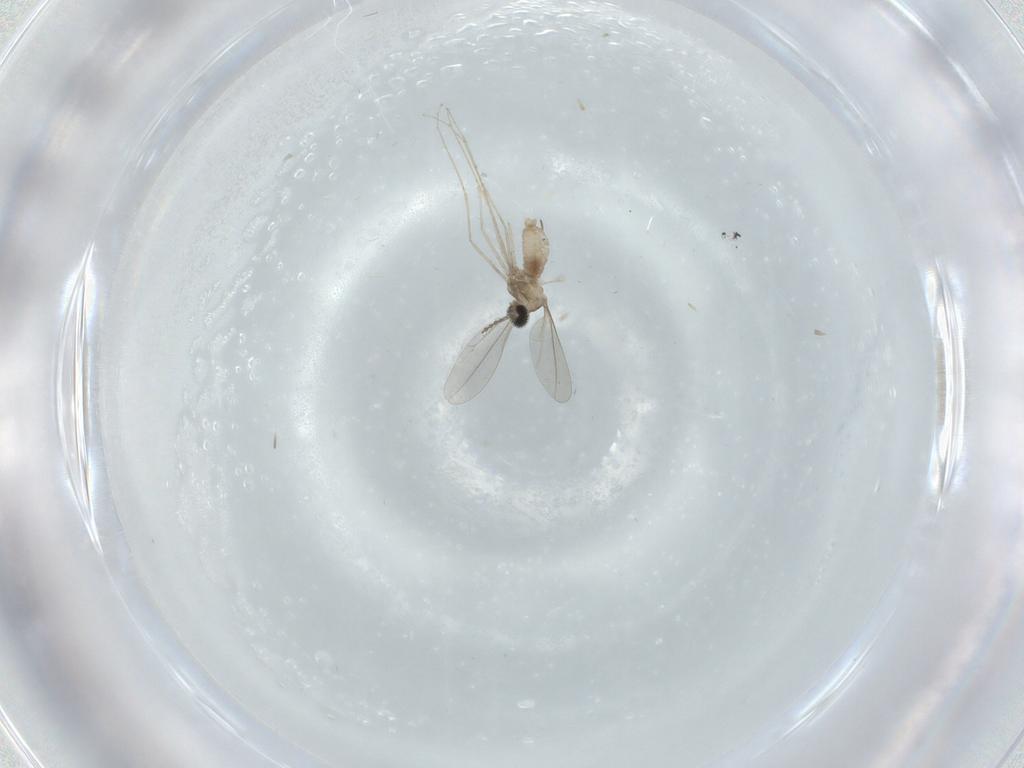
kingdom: Animalia
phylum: Arthropoda
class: Insecta
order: Diptera
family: Cecidomyiidae
